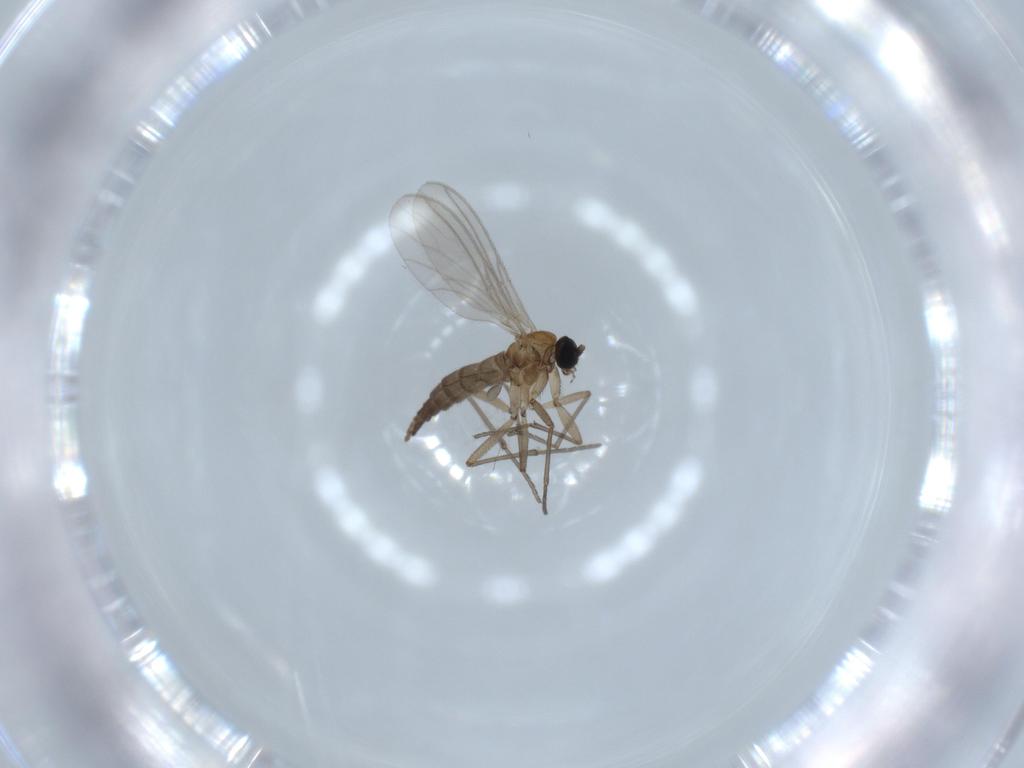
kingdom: Animalia
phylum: Arthropoda
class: Insecta
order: Diptera
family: Sciaridae
